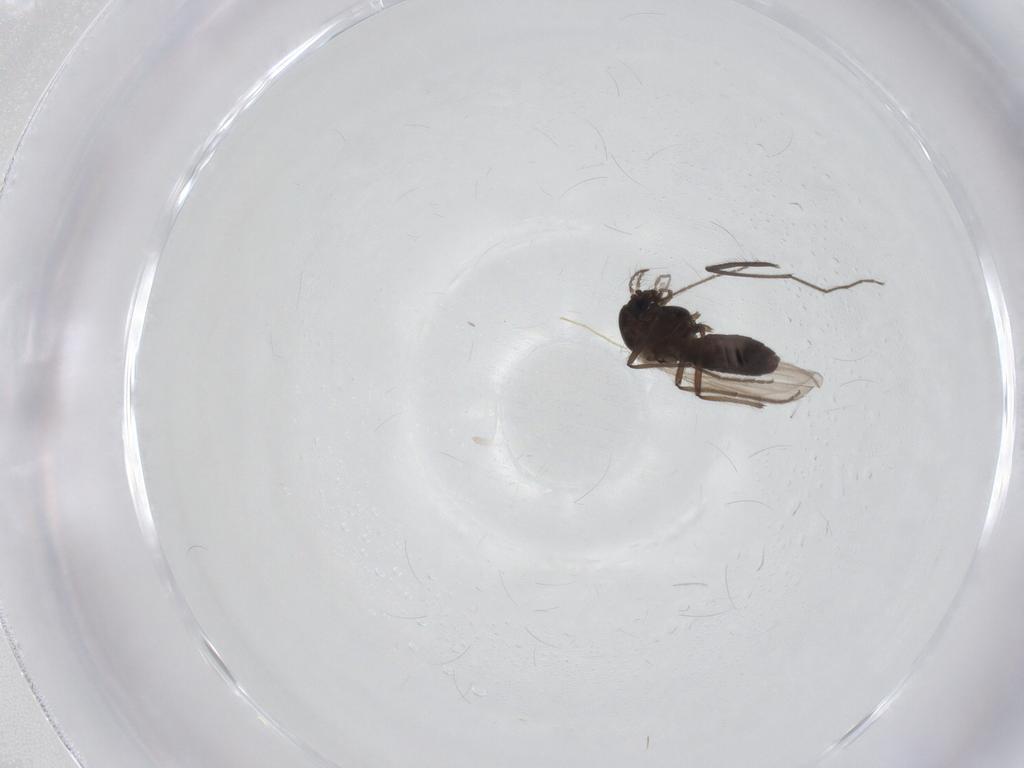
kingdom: Animalia
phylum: Arthropoda
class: Insecta
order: Diptera
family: Chironomidae
